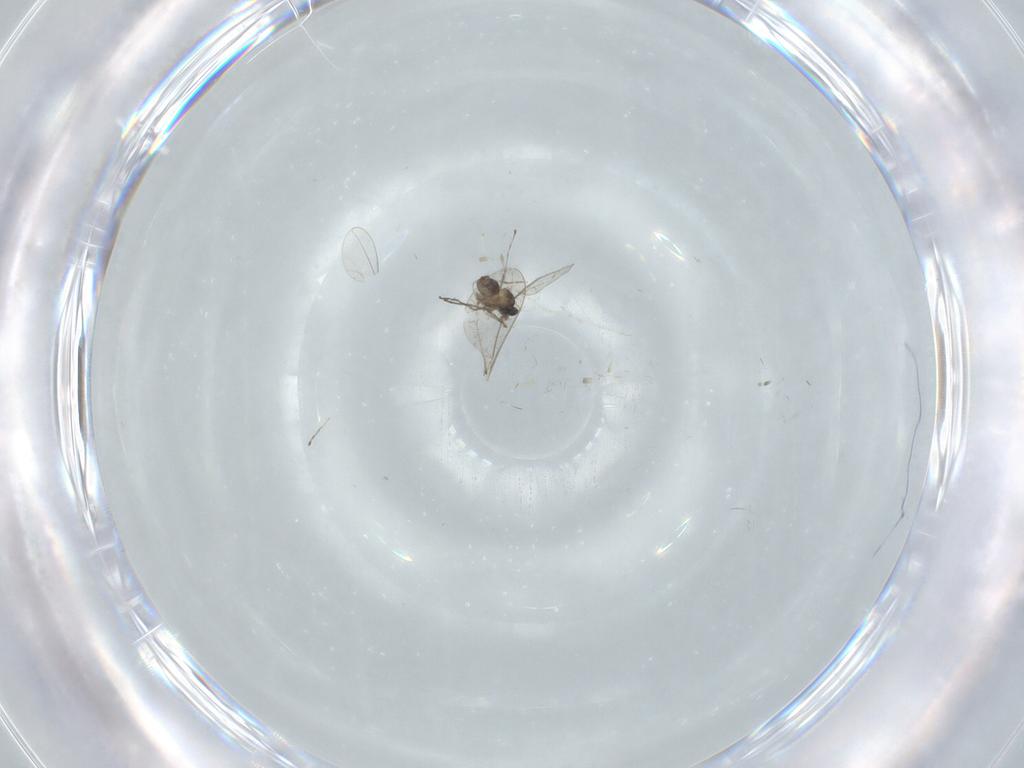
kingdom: Animalia
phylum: Arthropoda
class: Insecta
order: Diptera
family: Cecidomyiidae
